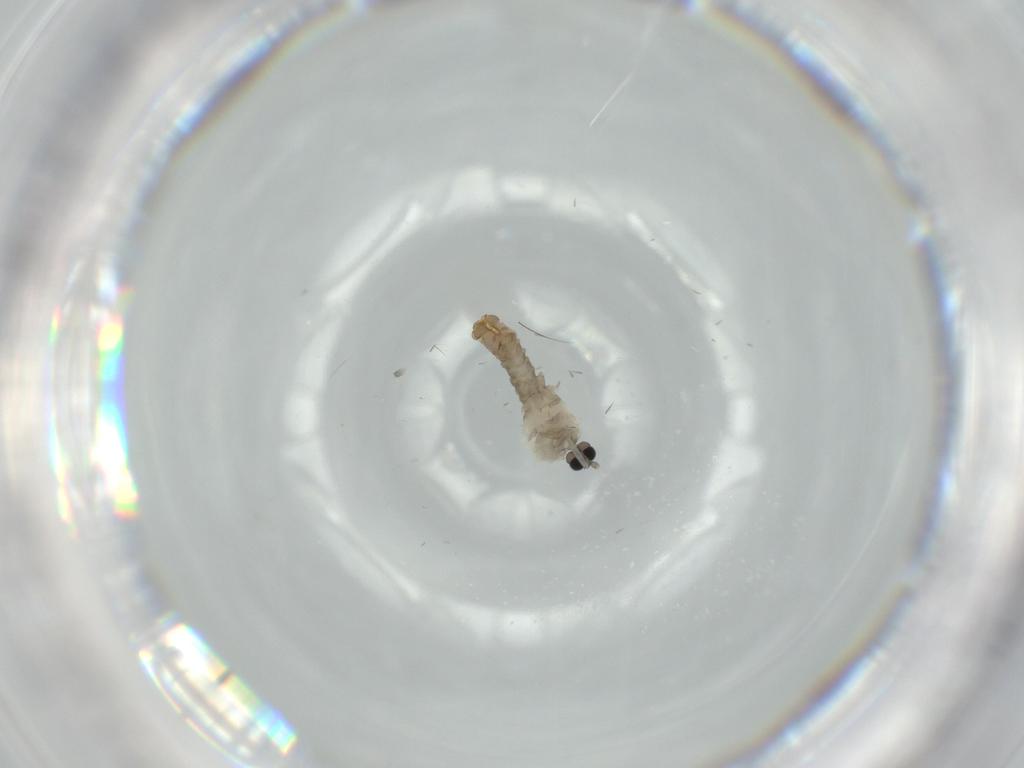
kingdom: Animalia
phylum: Arthropoda
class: Insecta
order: Diptera
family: Cecidomyiidae
